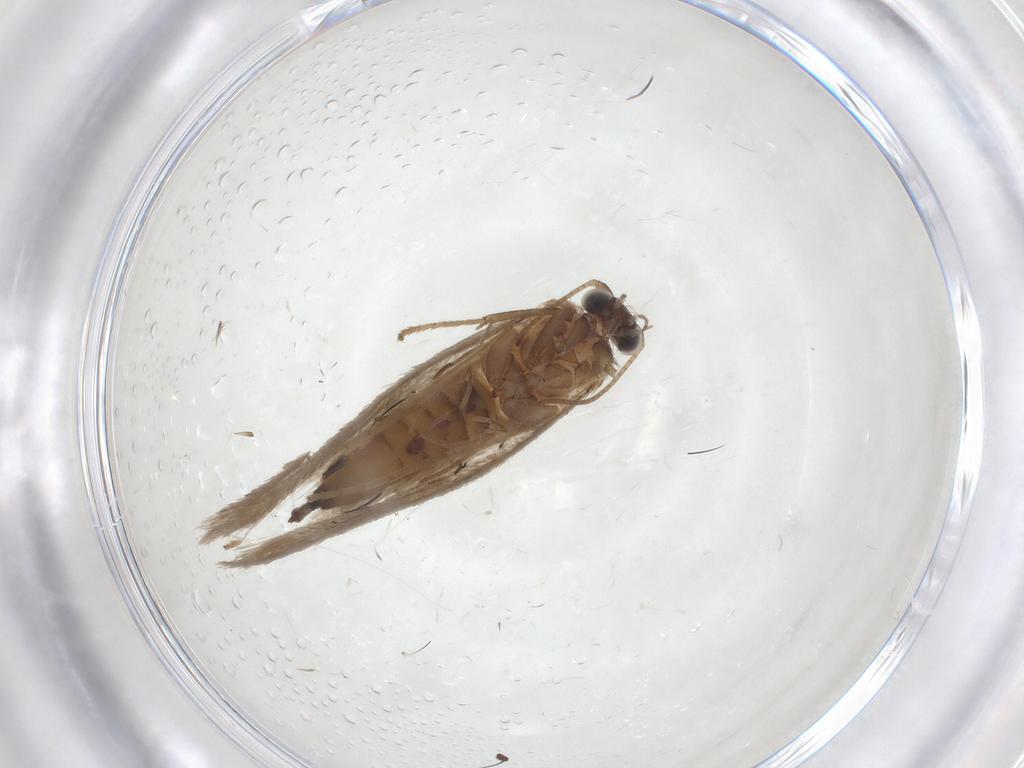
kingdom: Animalia
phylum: Arthropoda
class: Insecta
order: Lepidoptera
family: Incurvariidae
